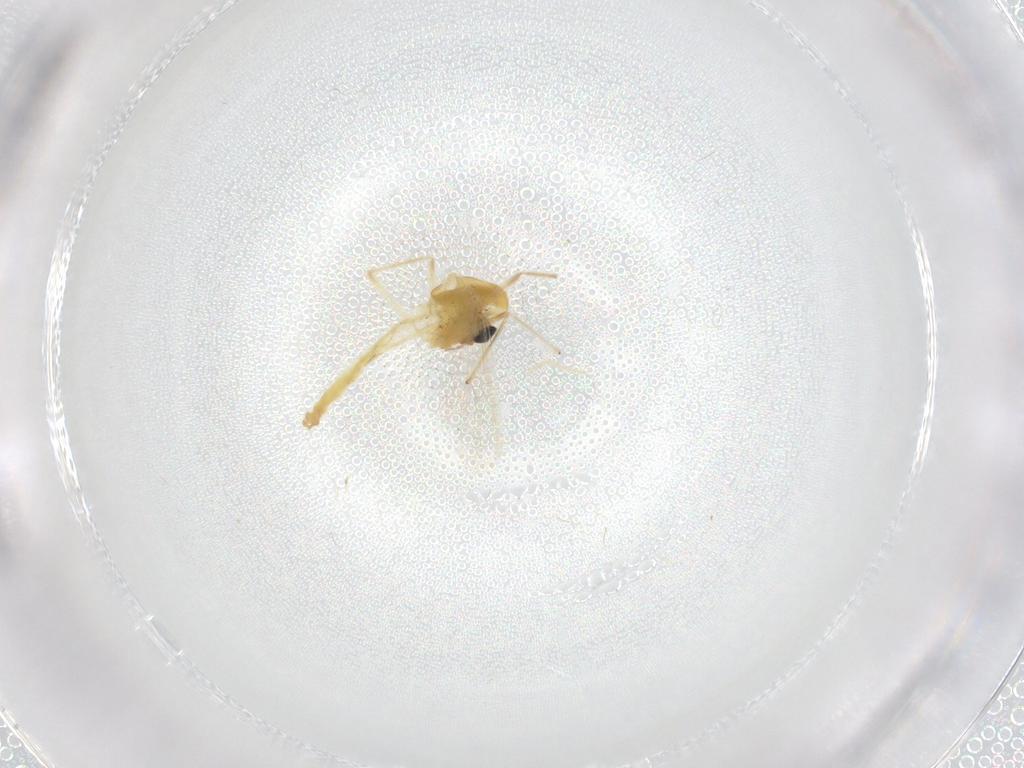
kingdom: Animalia
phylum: Arthropoda
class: Insecta
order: Diptera
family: Chironomidae
